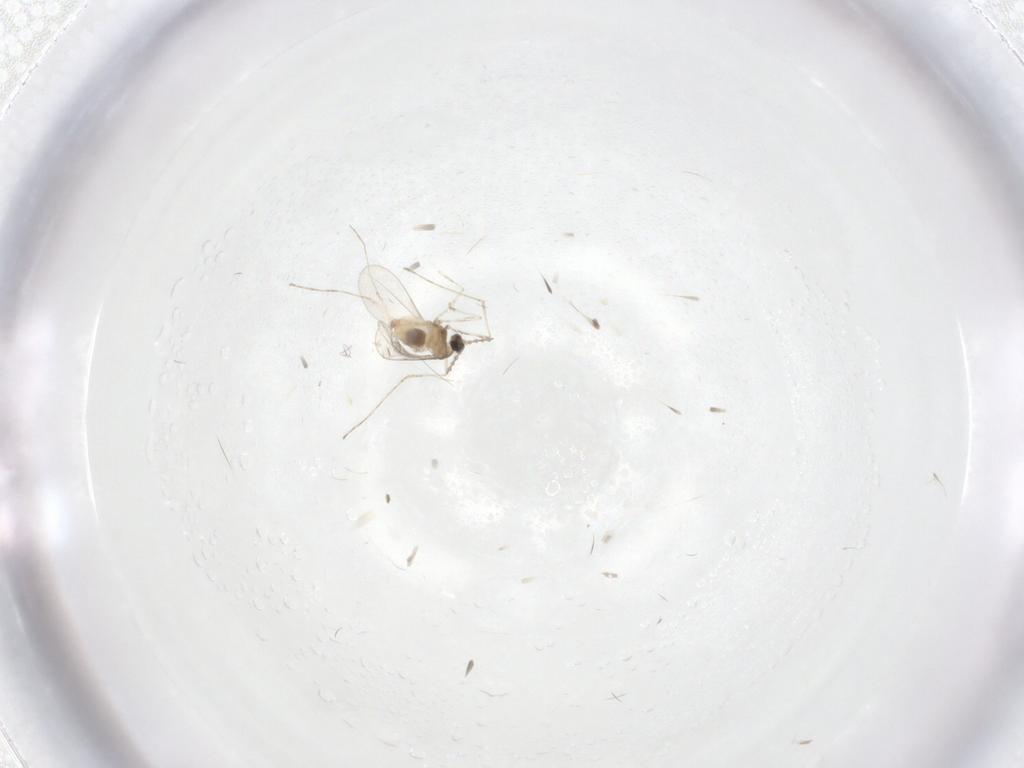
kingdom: Animalia
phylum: Arthropoda
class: Insecta
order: Diptera
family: Cecidomyiidae
